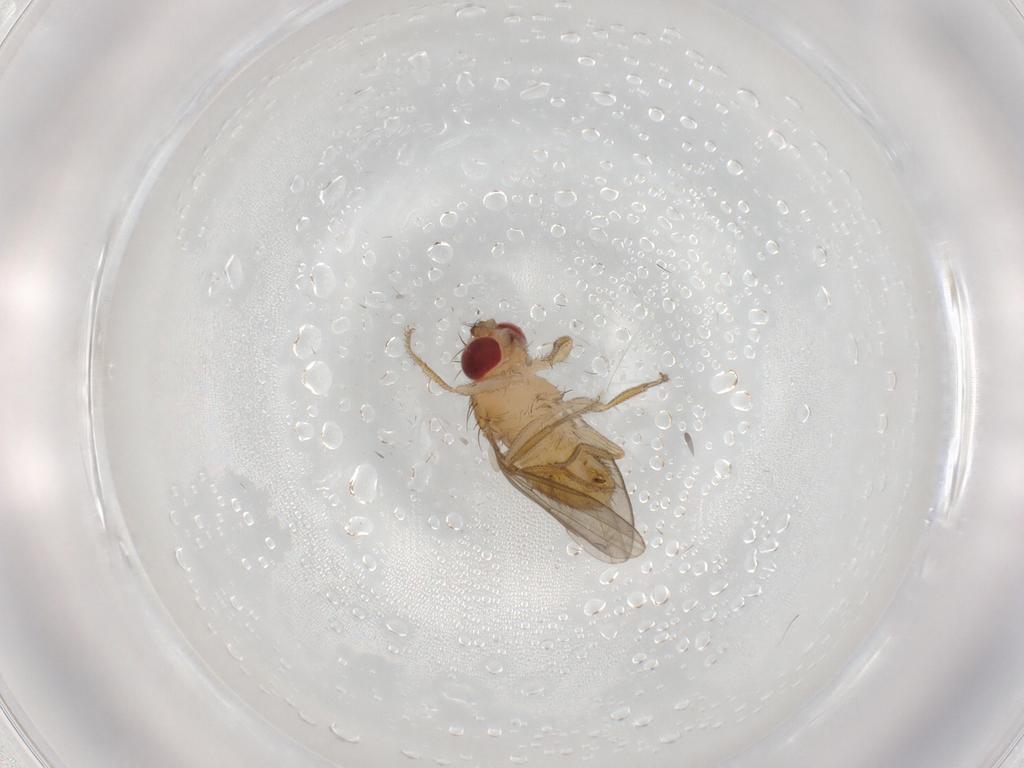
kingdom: Animalia
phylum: Arthropoda
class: Insecta
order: Diptera
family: Drosophilidae
